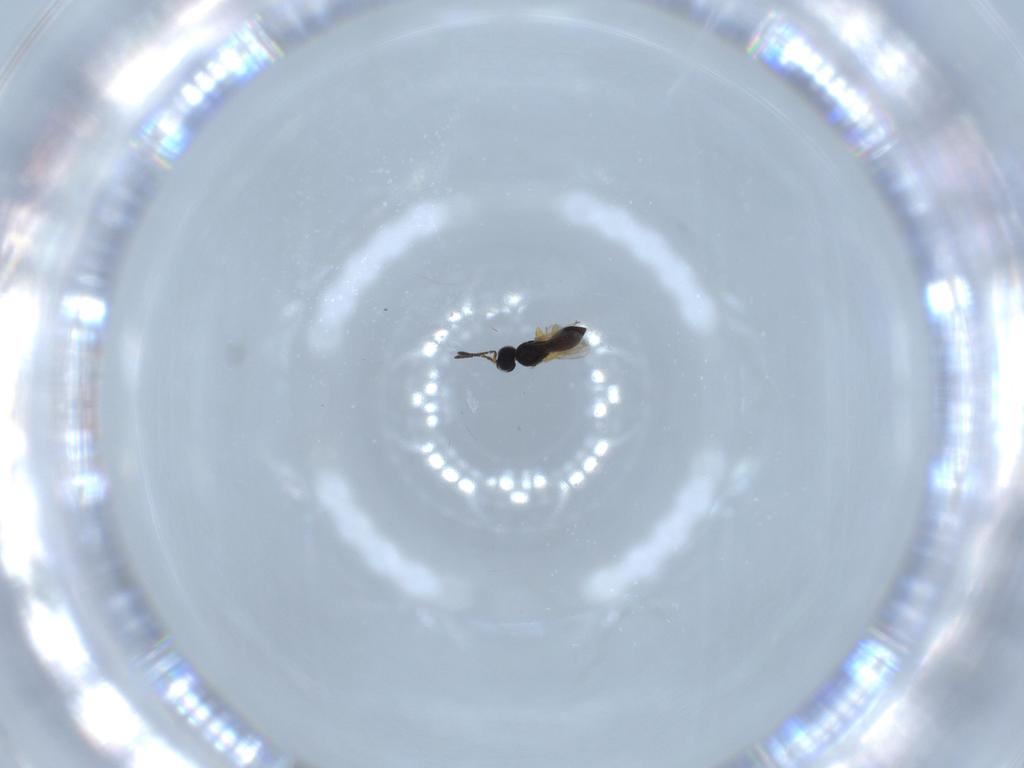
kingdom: Animalia
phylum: Arthropoda
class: Insecta
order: Hymenoptera
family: Scelionidae
